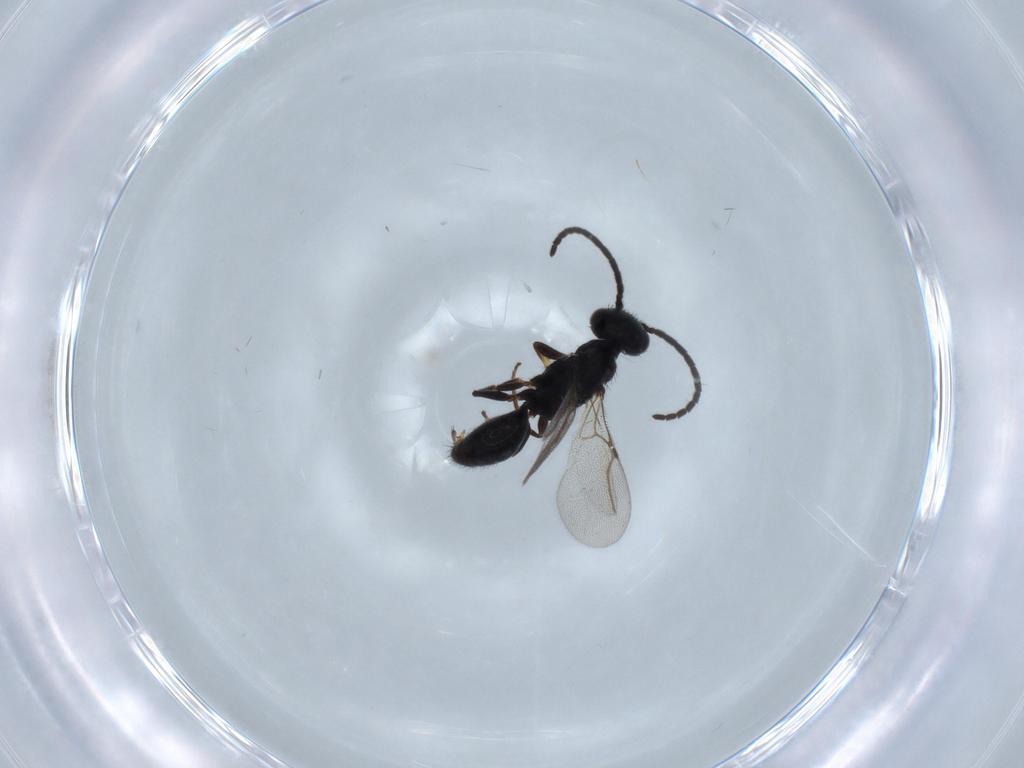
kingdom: Animalia
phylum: Arthropoda
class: Insecta
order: Hymenoptera
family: Bethylidae
